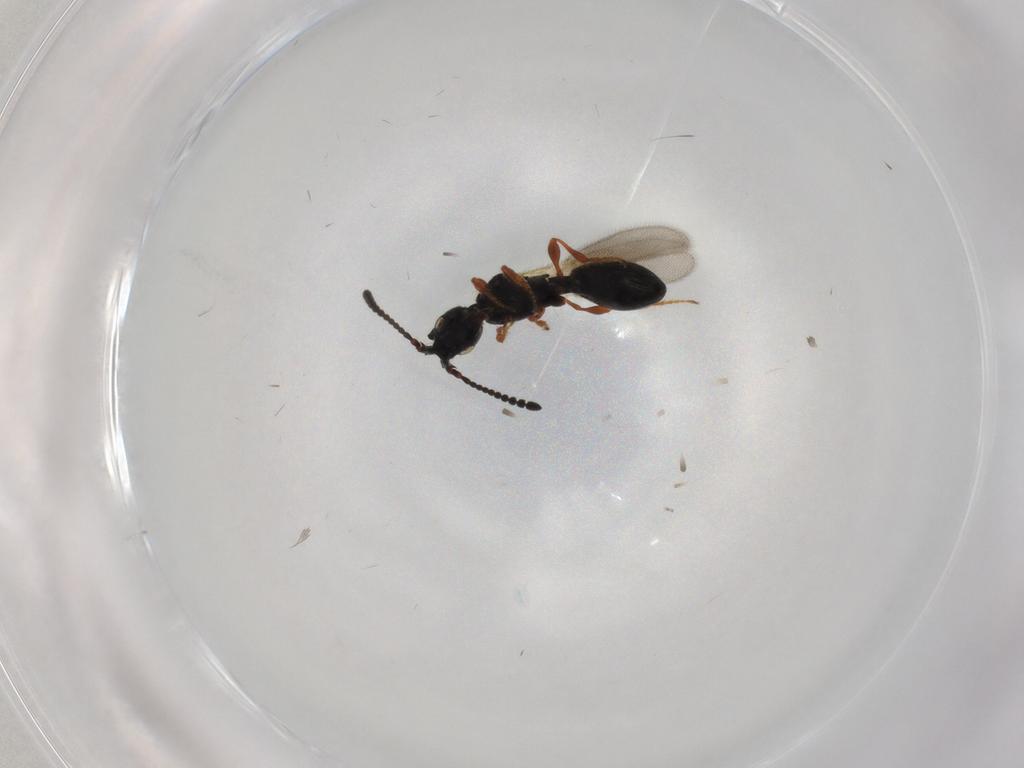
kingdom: Animalia
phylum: Arthropoda
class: Insecta
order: Hymenoptera
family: Diapriidae
